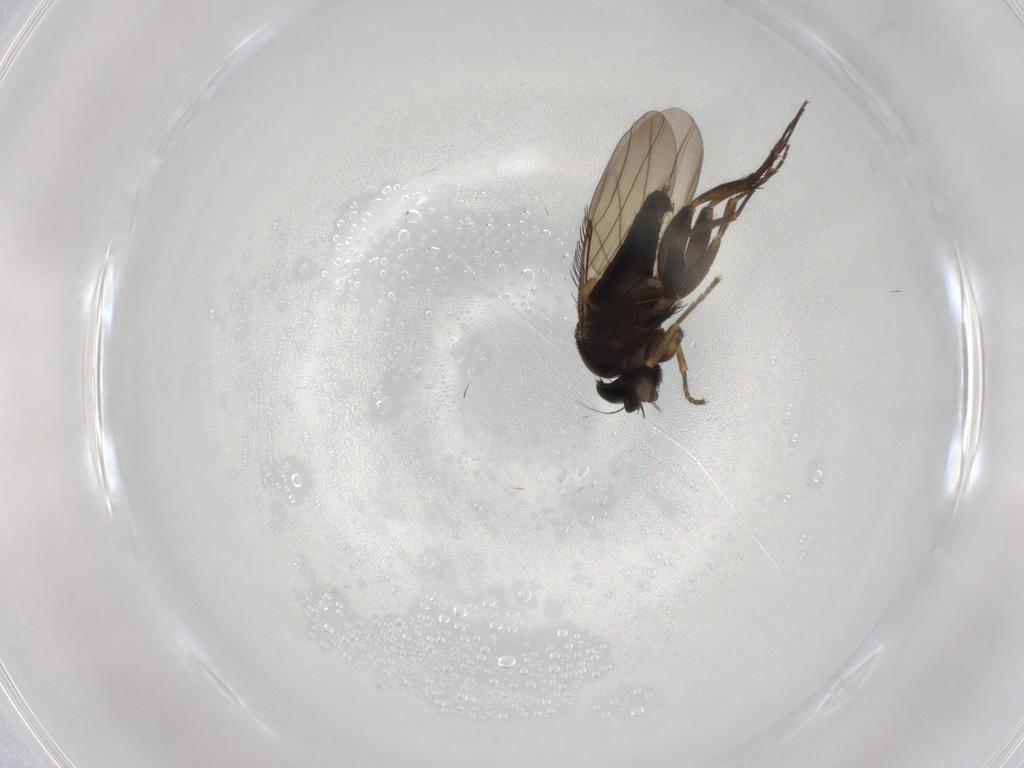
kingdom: Animalia
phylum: Arthropoda
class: Insecta
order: Diptera
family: Phoridae
